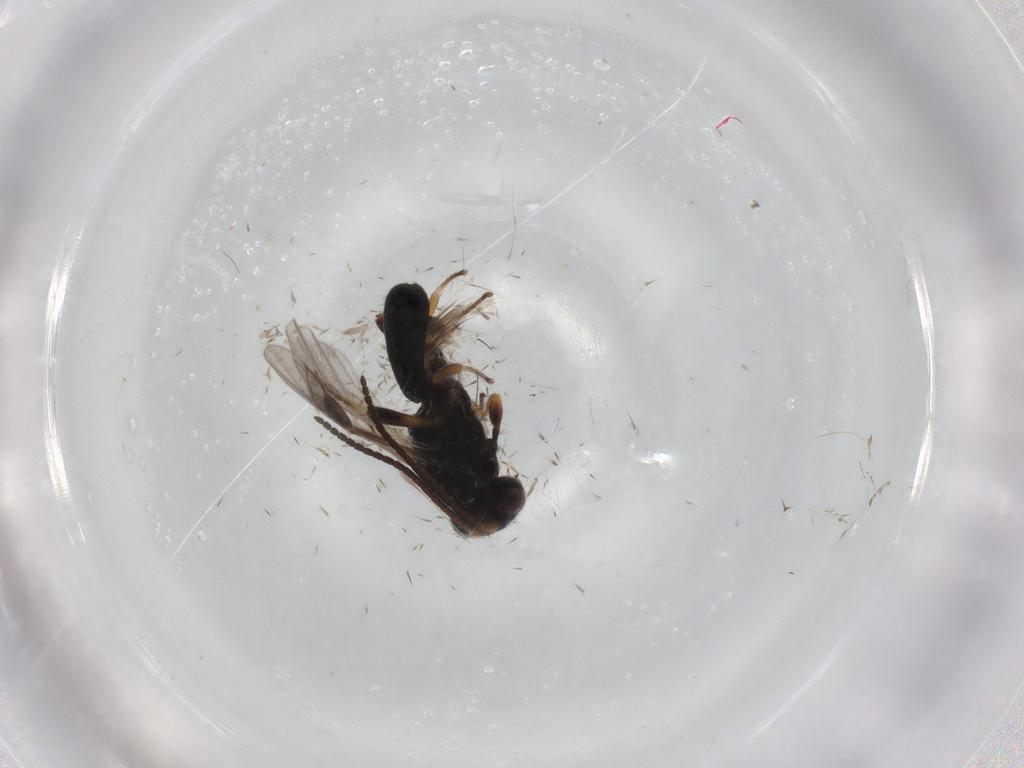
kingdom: Animalia
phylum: Arthropoda
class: Insecta
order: Hymenoptera
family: Braconidae
